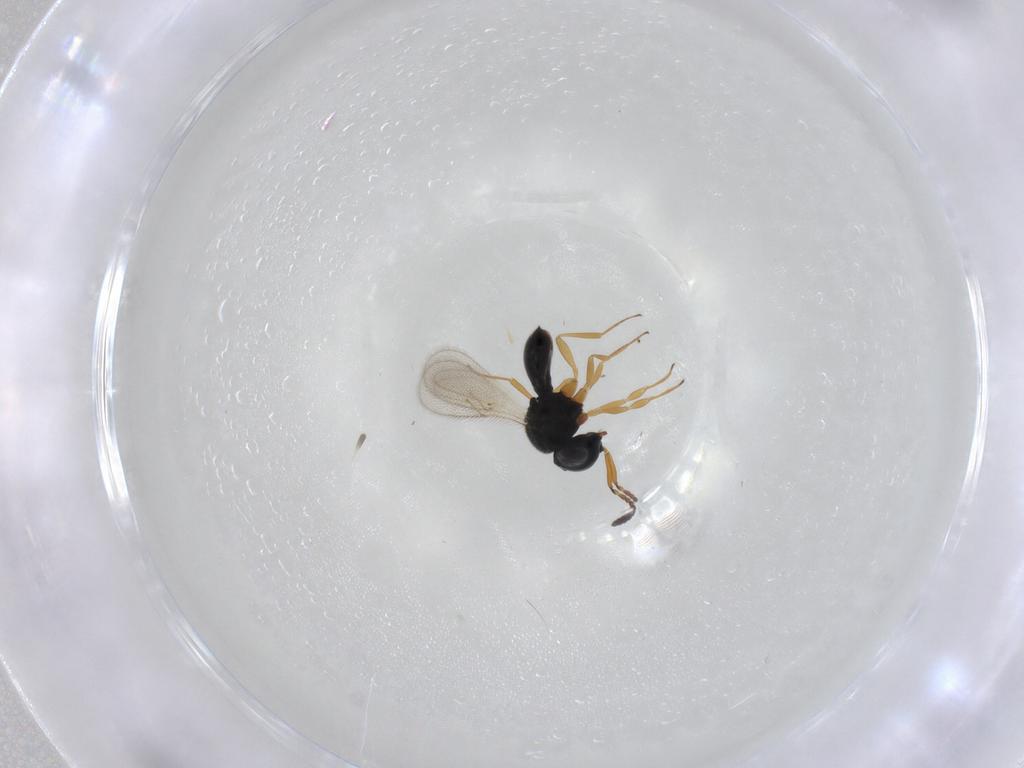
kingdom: Animalia
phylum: Arthropoda
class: Insecta
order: Hymenoptera
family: Scelionidae
